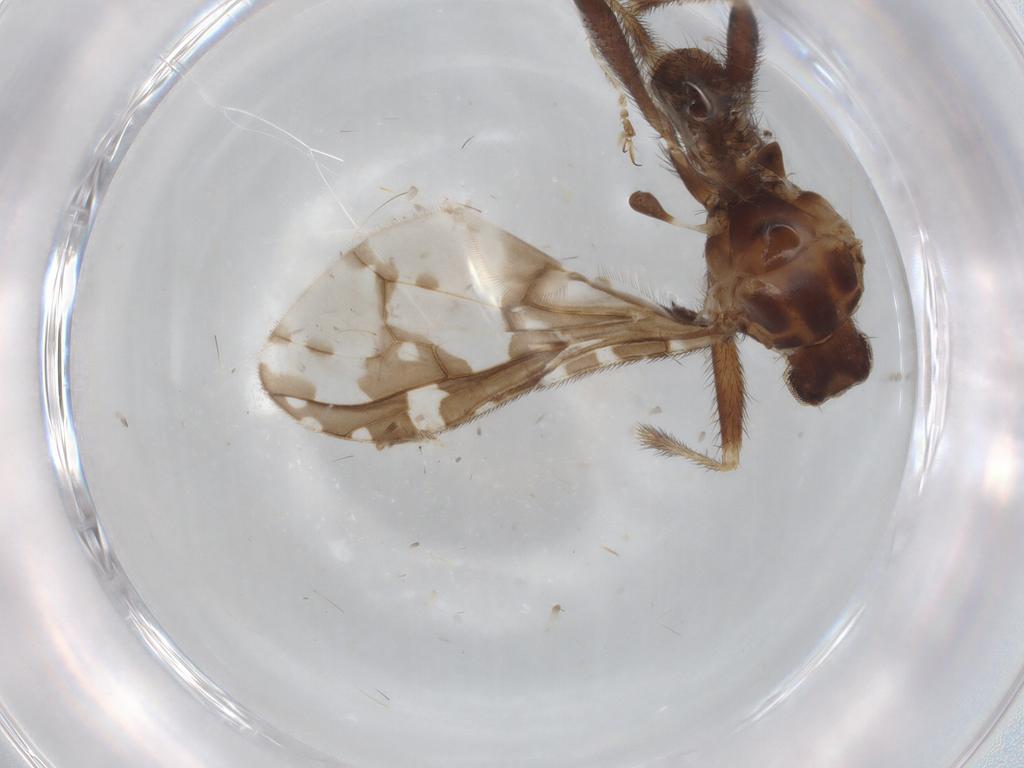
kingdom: Animalia
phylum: Arthropoda
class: Insecta
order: Diptera
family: Pyrgotidae
